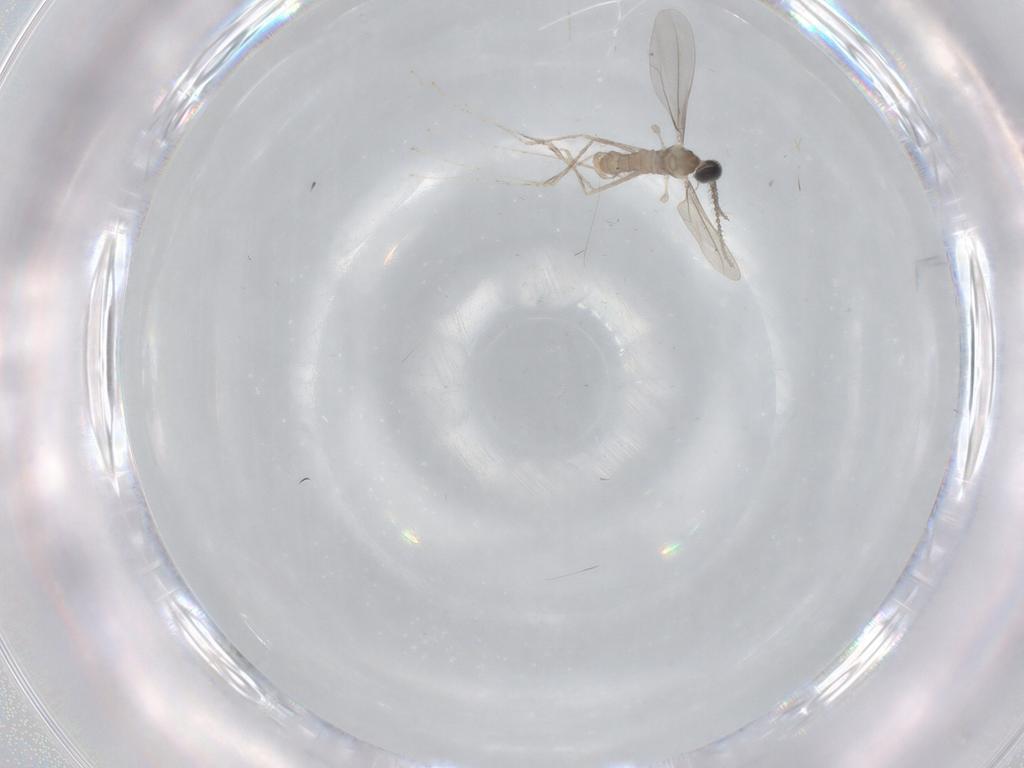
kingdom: Animalia
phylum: Arthropoda
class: Insecta
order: Diptera
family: Cecidomyiidae
